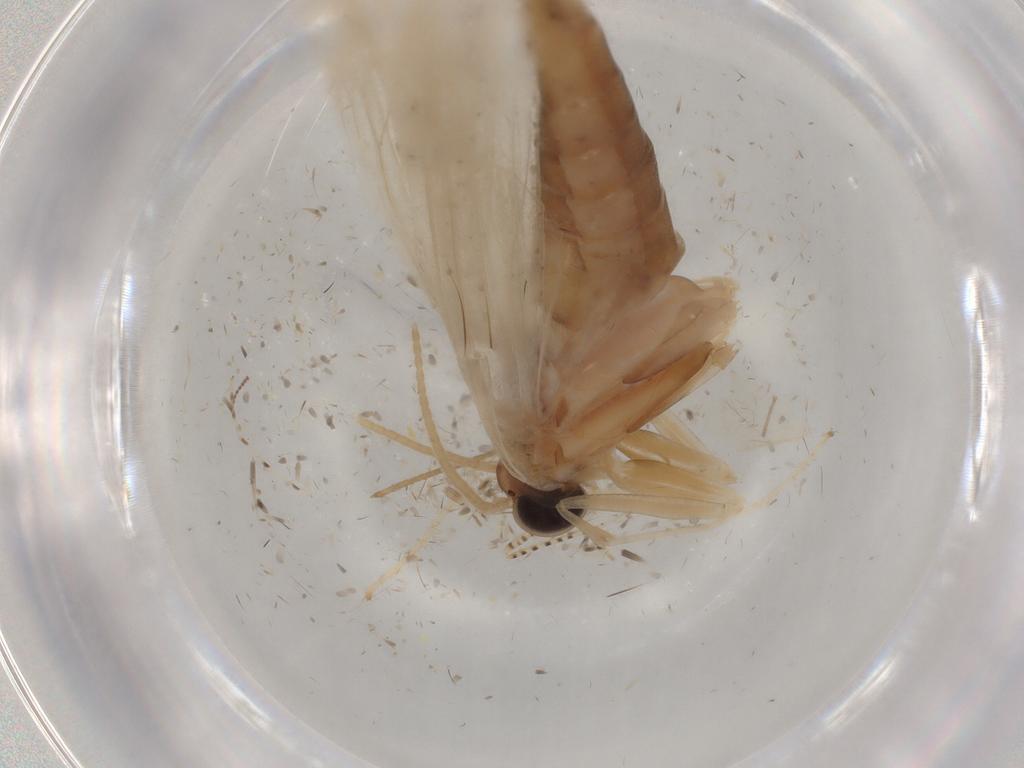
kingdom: Animalia
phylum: Arthropoda
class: Insecta
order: Lepidoptera
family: Crambidae
